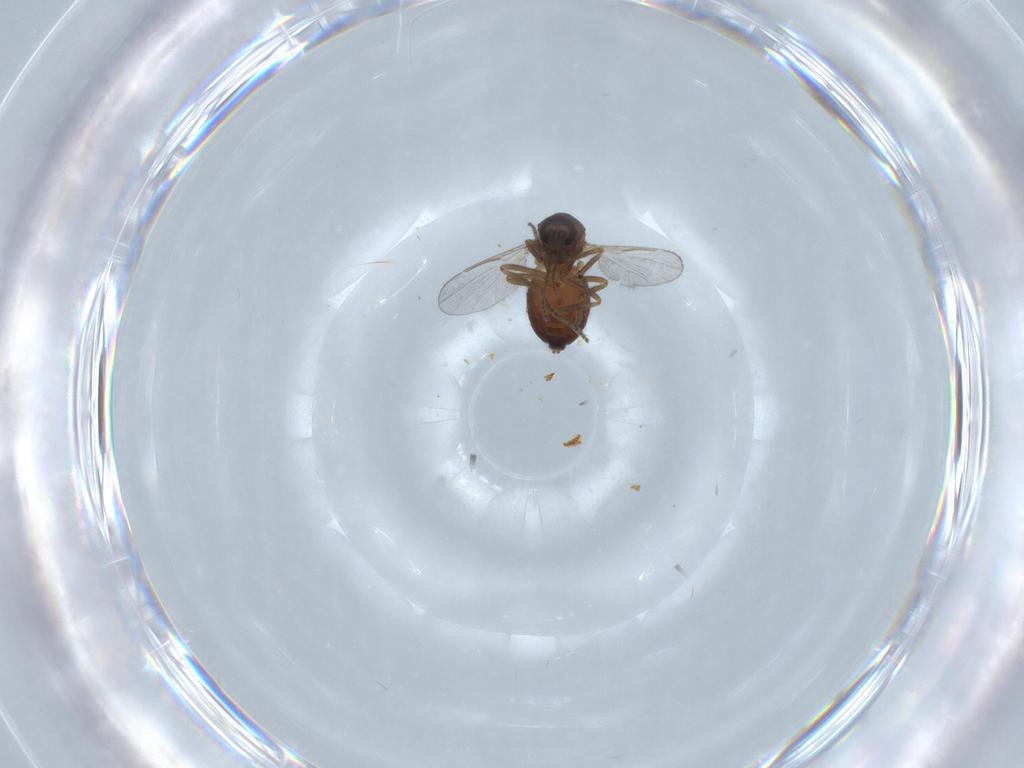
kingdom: Animalia
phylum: Arthropoda
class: Insecta
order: Diptera
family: Ceratopogonidae
